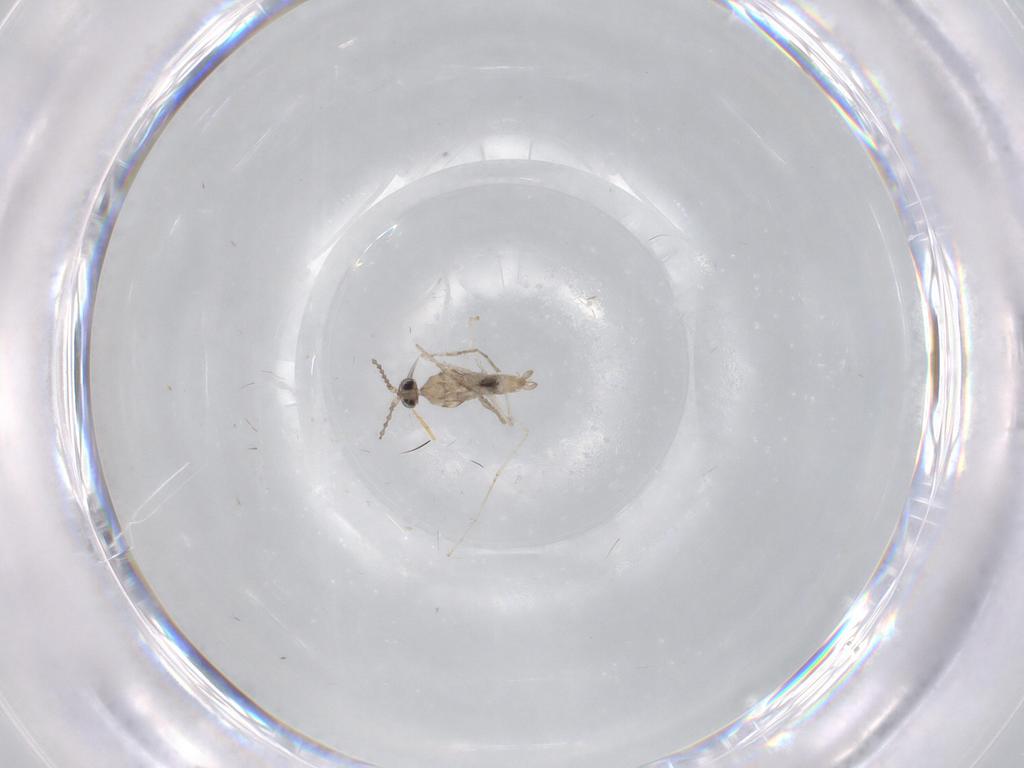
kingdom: Animalia
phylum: Arthropoda
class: Insecta
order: Diptera
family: Cecidomyiidae
